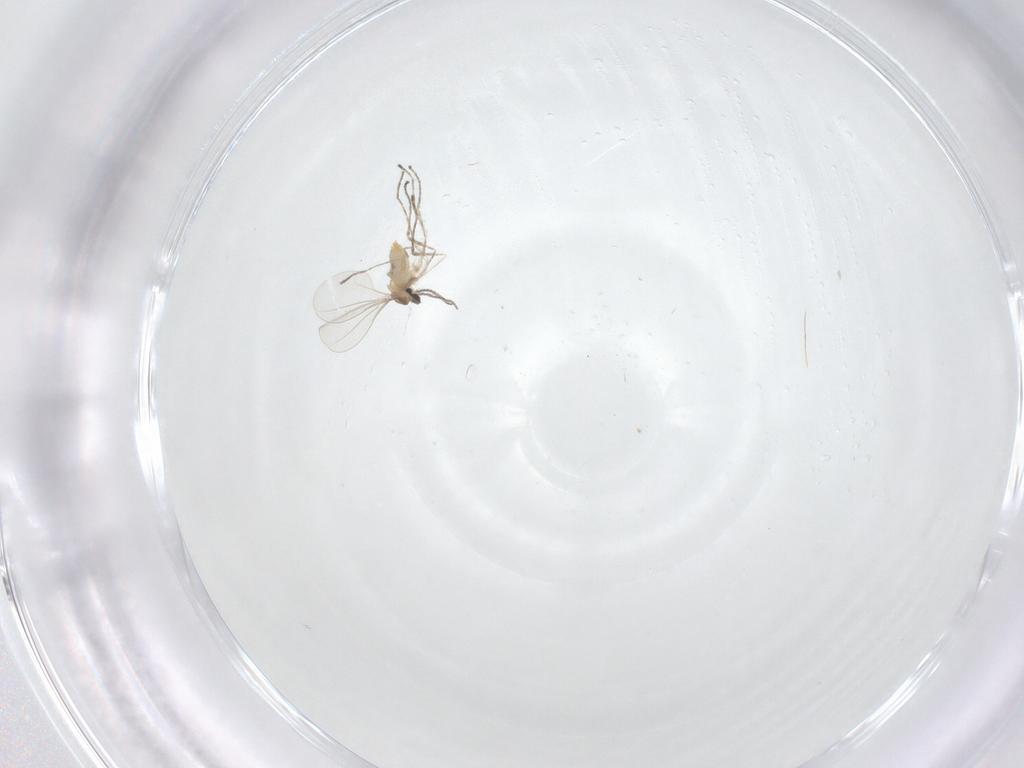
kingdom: Animalia
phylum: Arthropoda
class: Insecta
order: Diptera
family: Cecidomyiidae
